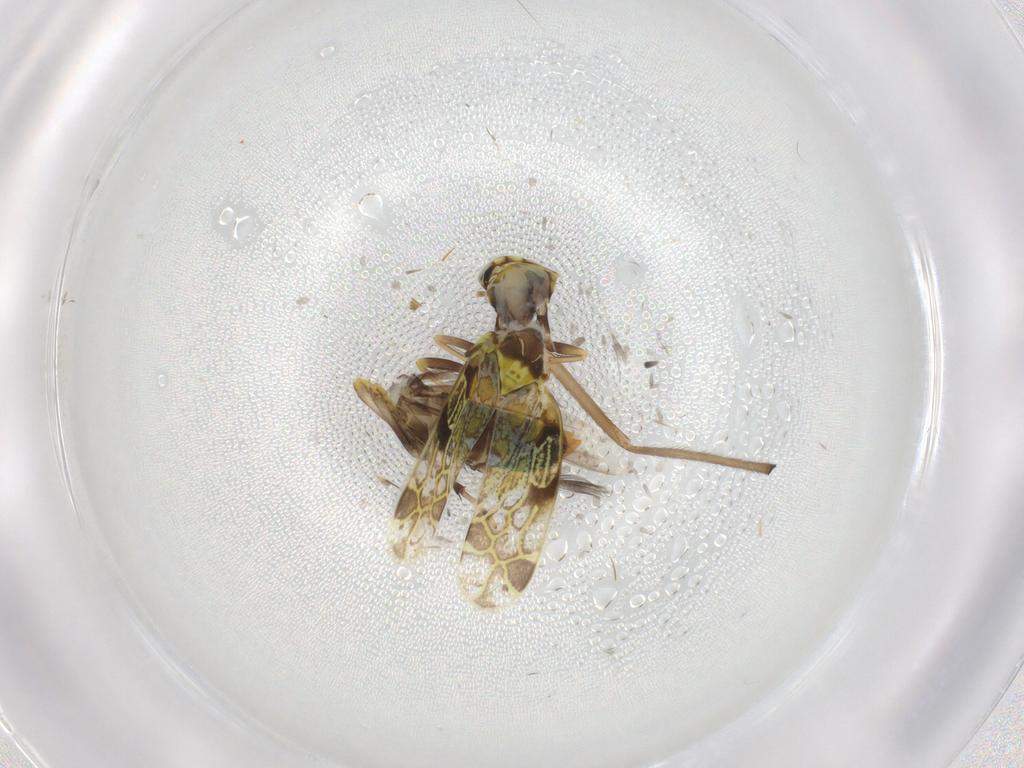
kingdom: Animalia
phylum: Arthropoda
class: Insecta
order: Hemiptera
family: Cicadellidae
